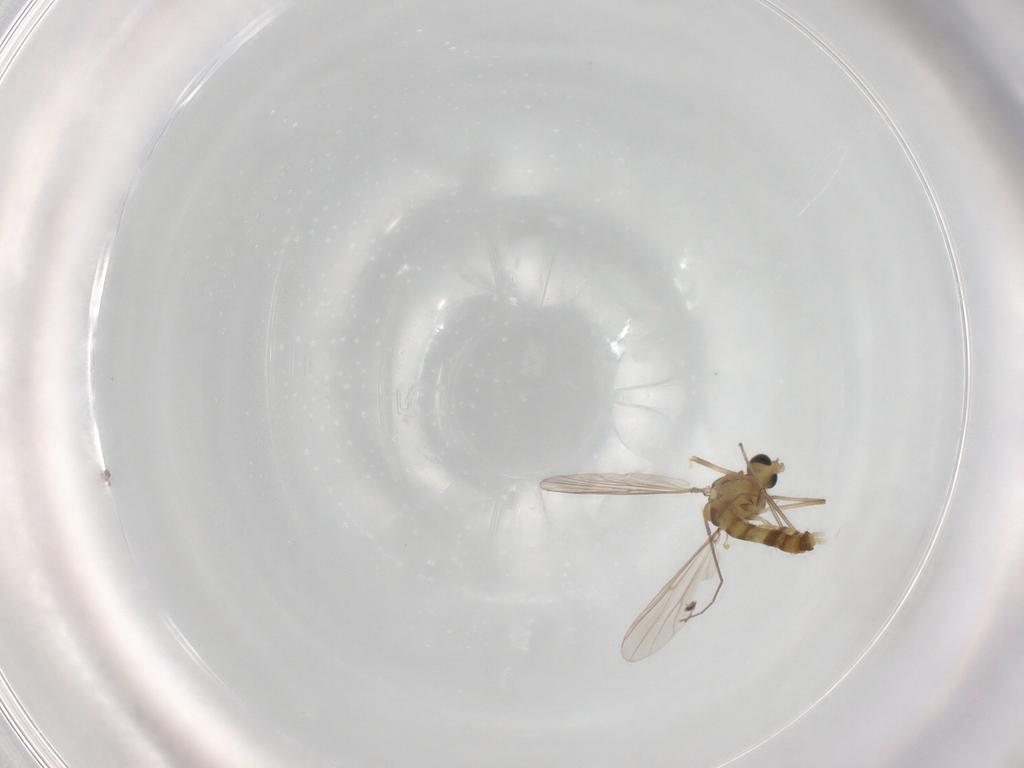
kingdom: Animalia
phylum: Arthropoda
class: Insecta
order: Diptera
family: Chironomidae
